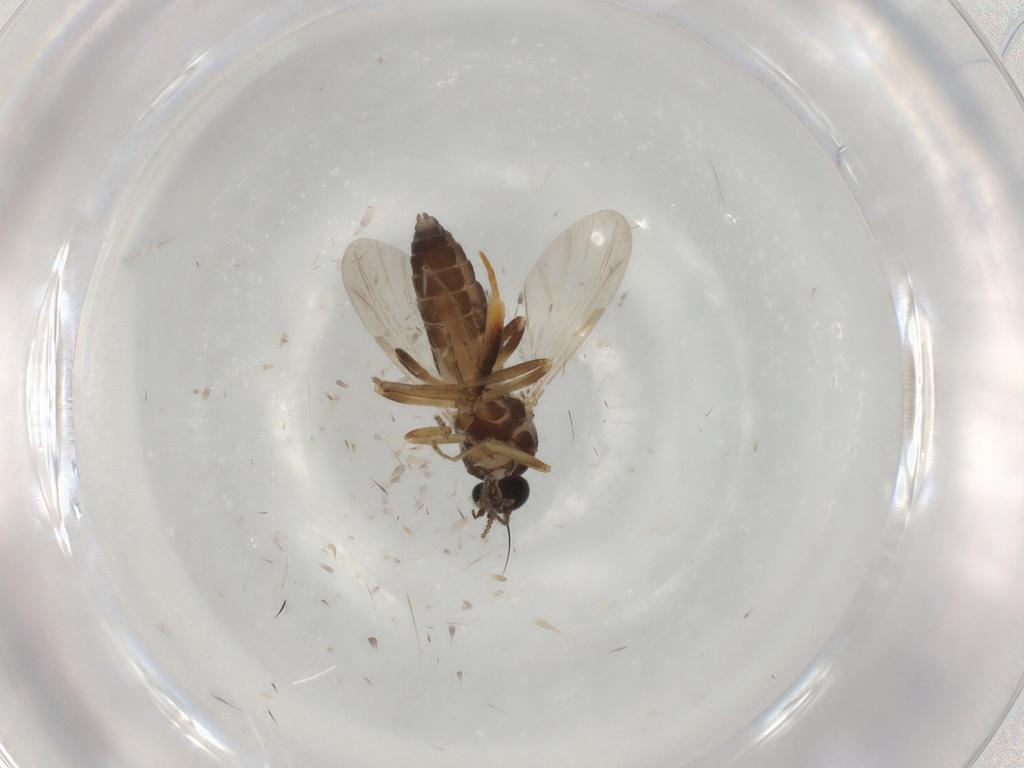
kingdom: Animalia
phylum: Arthropoda
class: Insecta
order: Diptera
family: Ceratopogonidae
